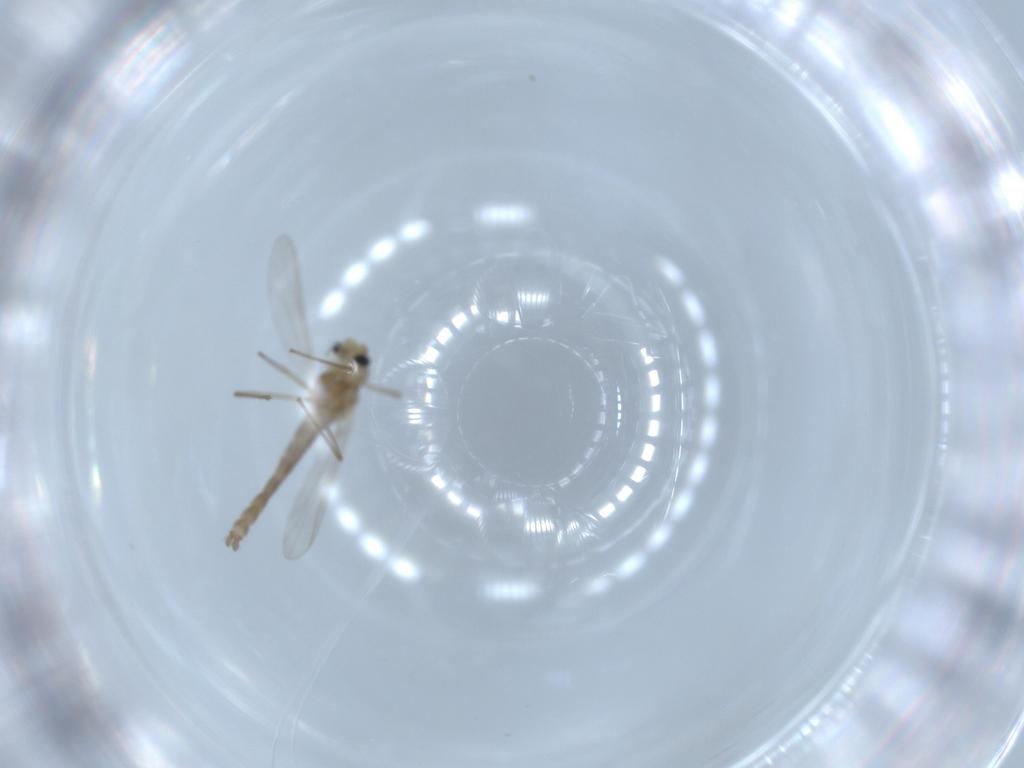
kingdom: Animalia
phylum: Arthropoda
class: Insecta
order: Diptera
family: Chironomidae
